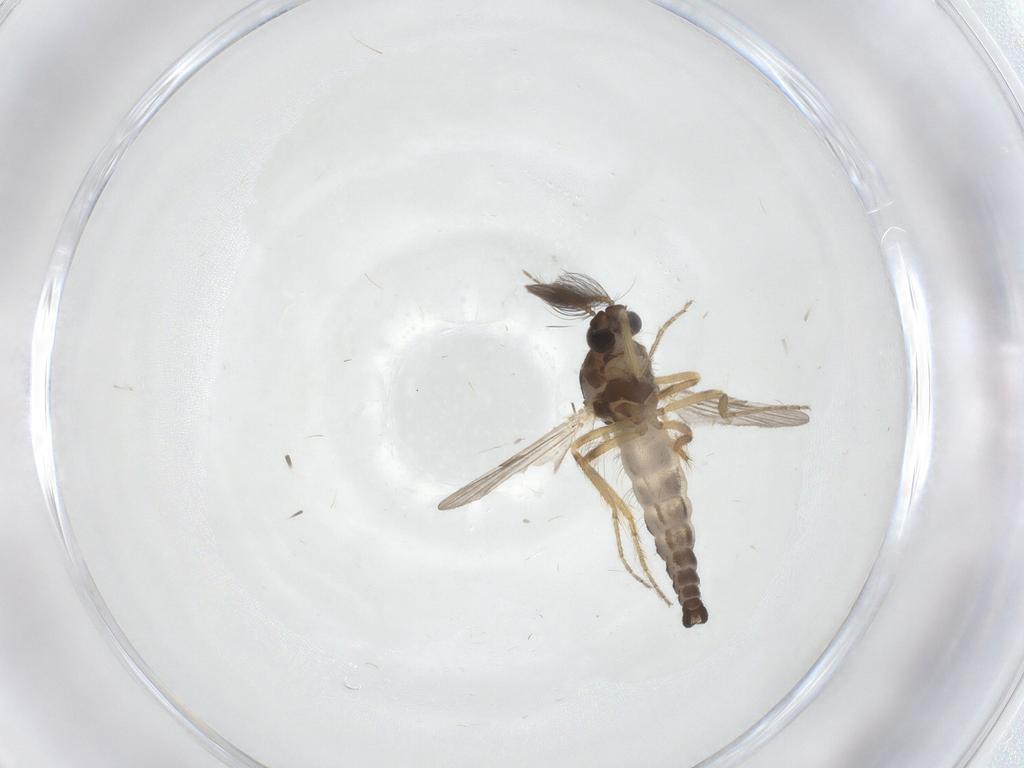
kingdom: Animalia
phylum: Arthropoda
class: Insecta
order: Diptera
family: Ceratopogonidae
